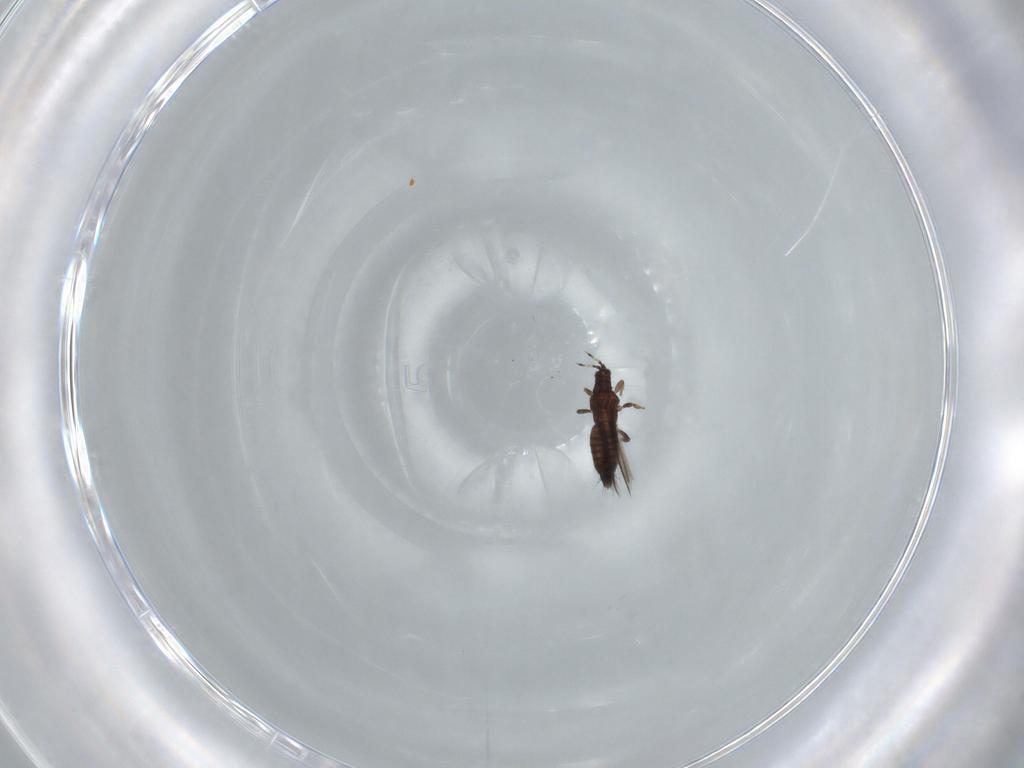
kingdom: Animalia
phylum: Arthropoda
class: Insecta
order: Thysanoptera
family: Thripidae
